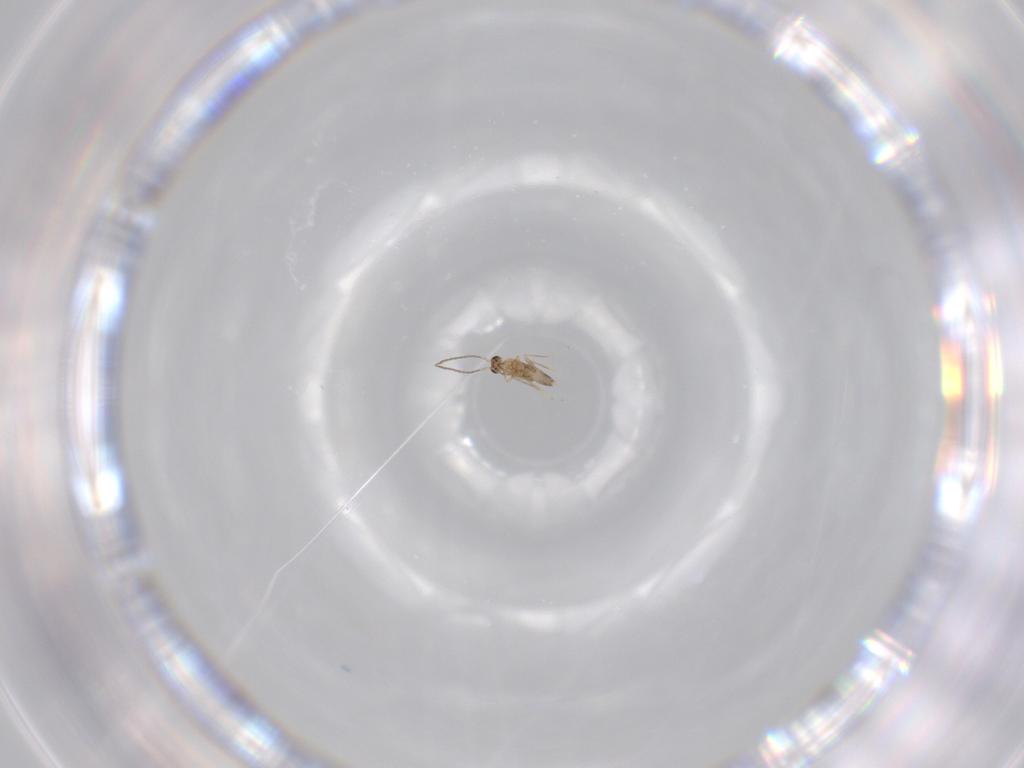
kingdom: Animalia
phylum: Arthropoda
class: Insecta
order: Hymenoptera
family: Mymaridae
